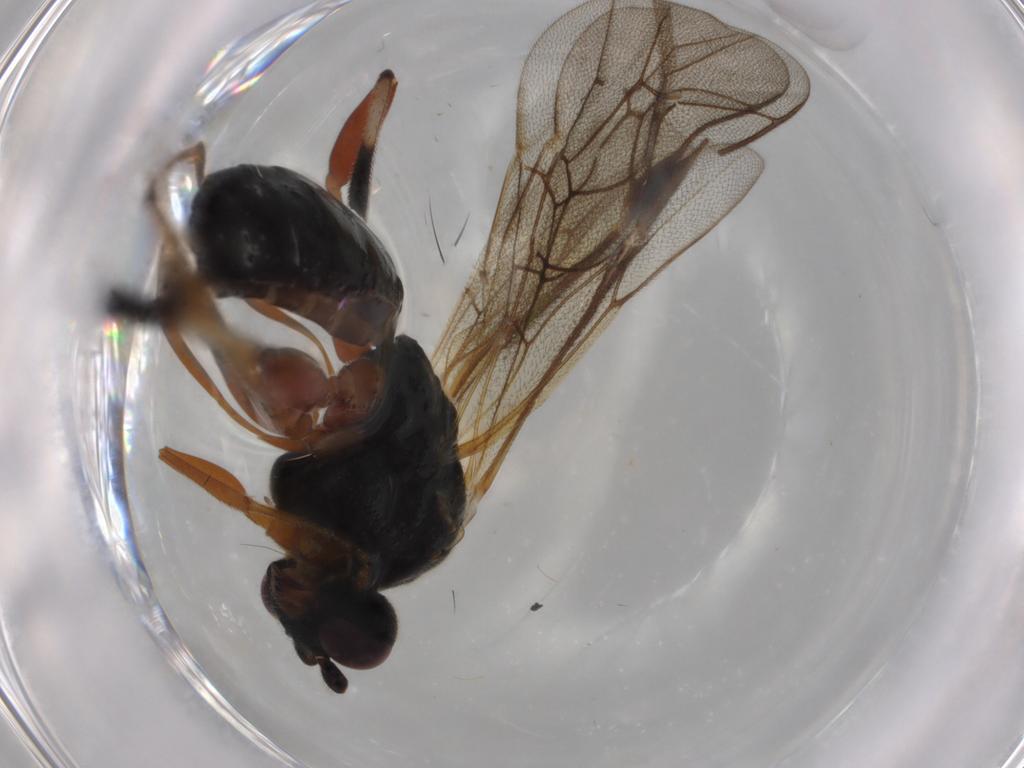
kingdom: Animalia
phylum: Arthropoda
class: Insecta
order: Hymenoptera
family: Ichneumonidae
